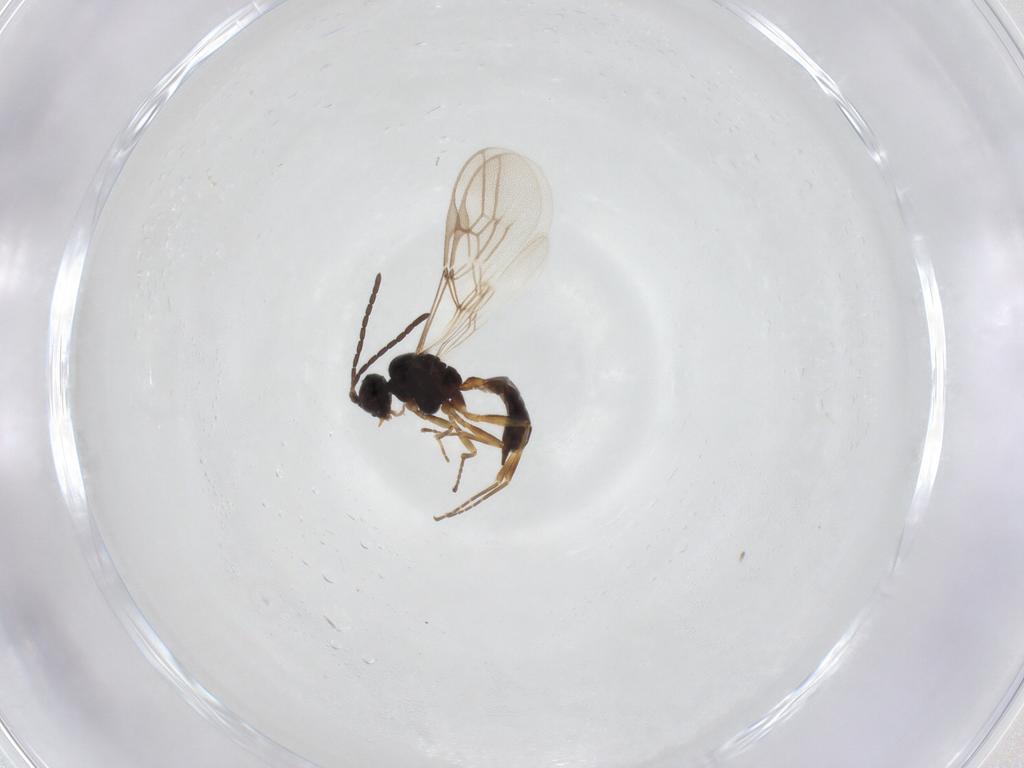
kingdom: Animalia
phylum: Arthropoda
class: Insecta
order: Hymenoptera
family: Braconidae
